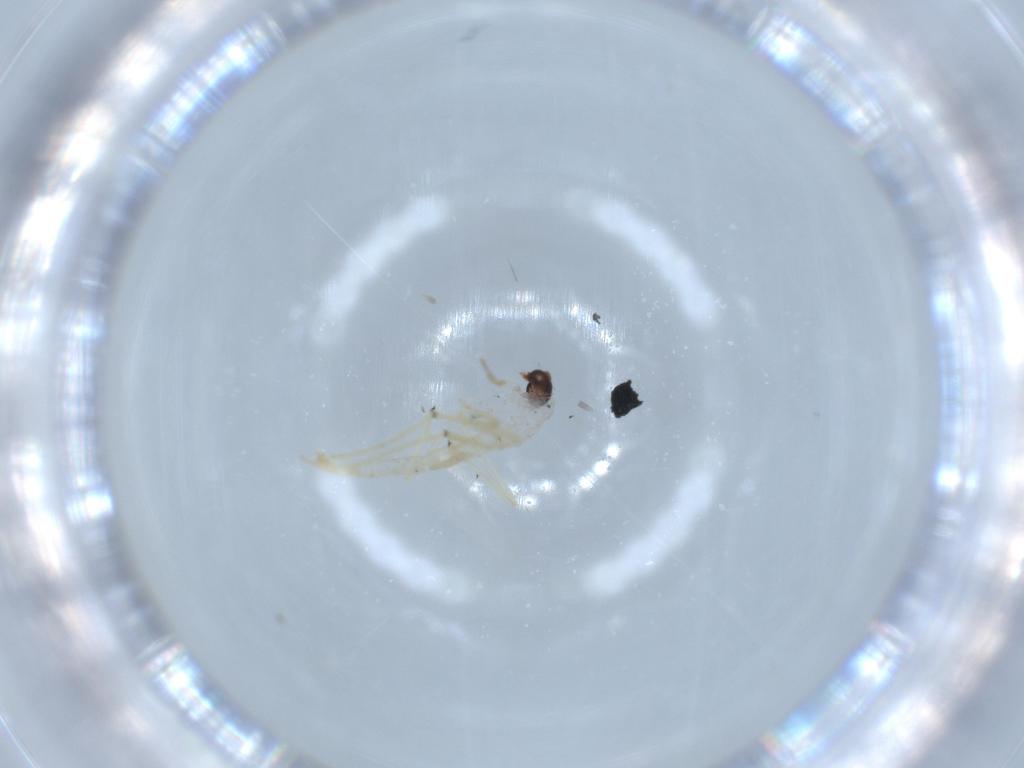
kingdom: Animalia
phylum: Arthropoda
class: Insecta
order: Diptera
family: Chironomidae
